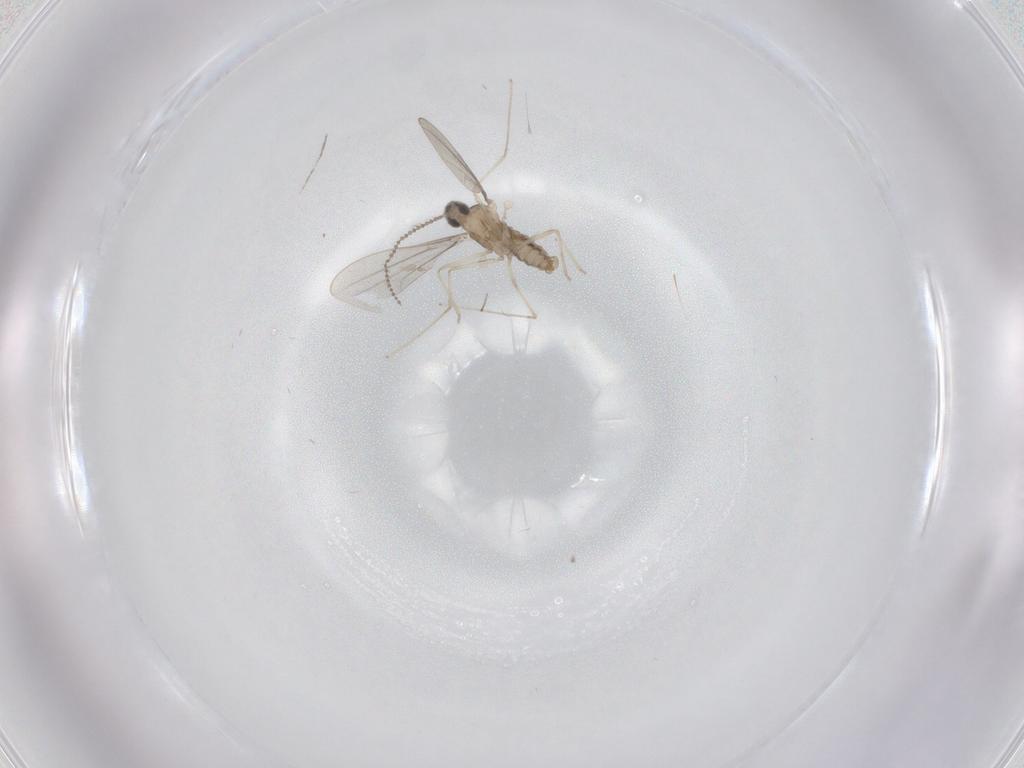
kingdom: Animalia
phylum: Arthropoda
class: Insecta
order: Diptera
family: Cecidomyiidae
